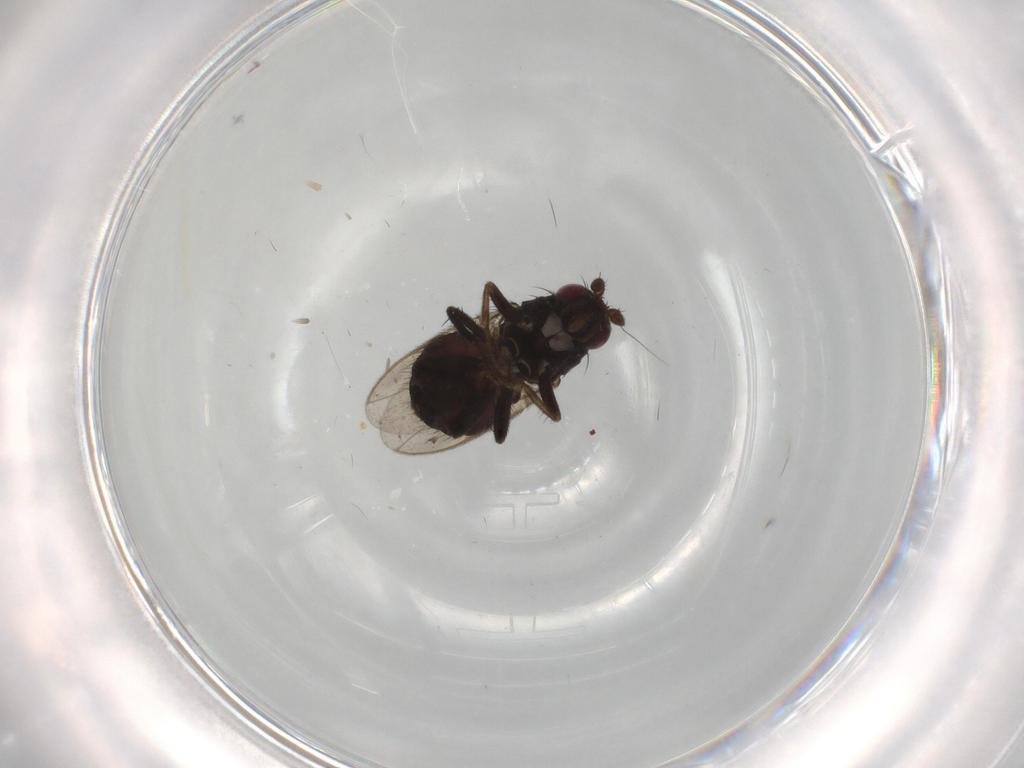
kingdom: Animalia
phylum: Arthropoda
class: Insecta
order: Diptera
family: Sphaeroceridae
